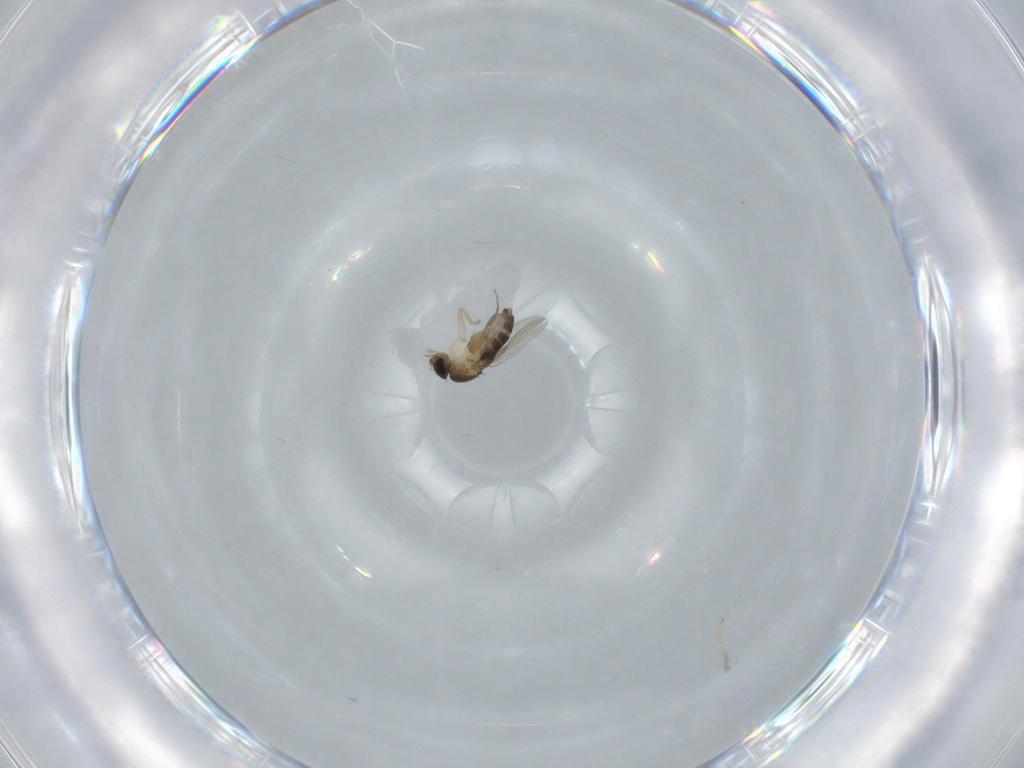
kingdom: Animalia
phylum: Arthropoda
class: Insecta
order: Diptera
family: Phoridae
